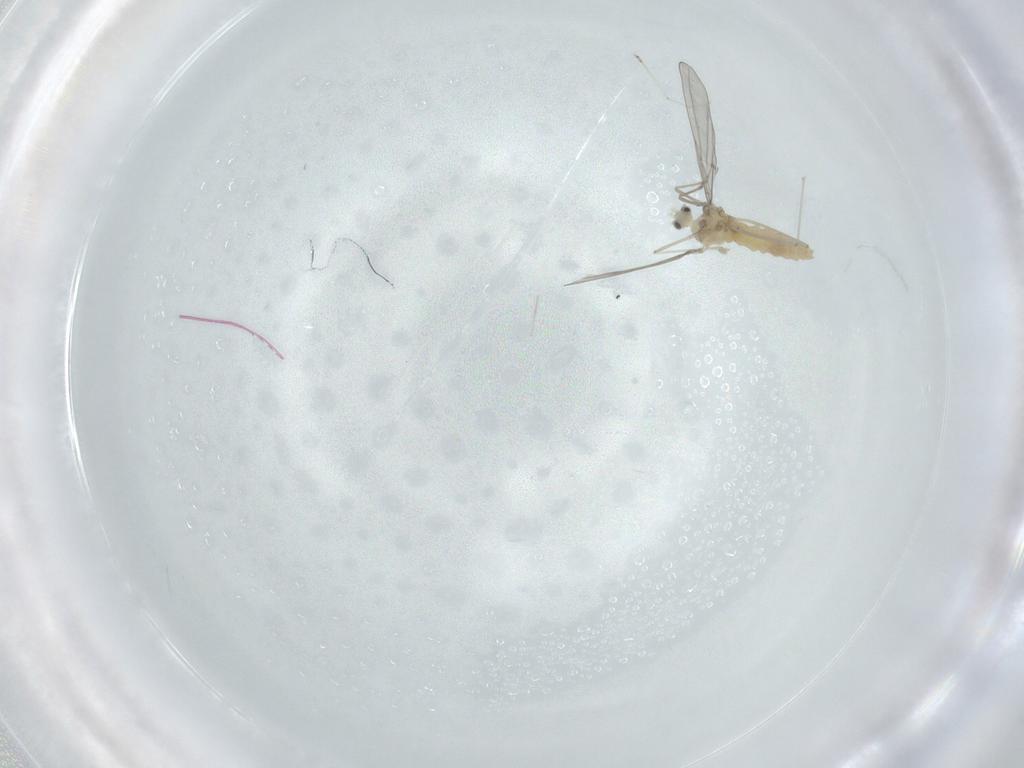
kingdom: Animalia
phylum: Arthropoda
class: Insecta
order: Diptera
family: Cecidomyiidae
